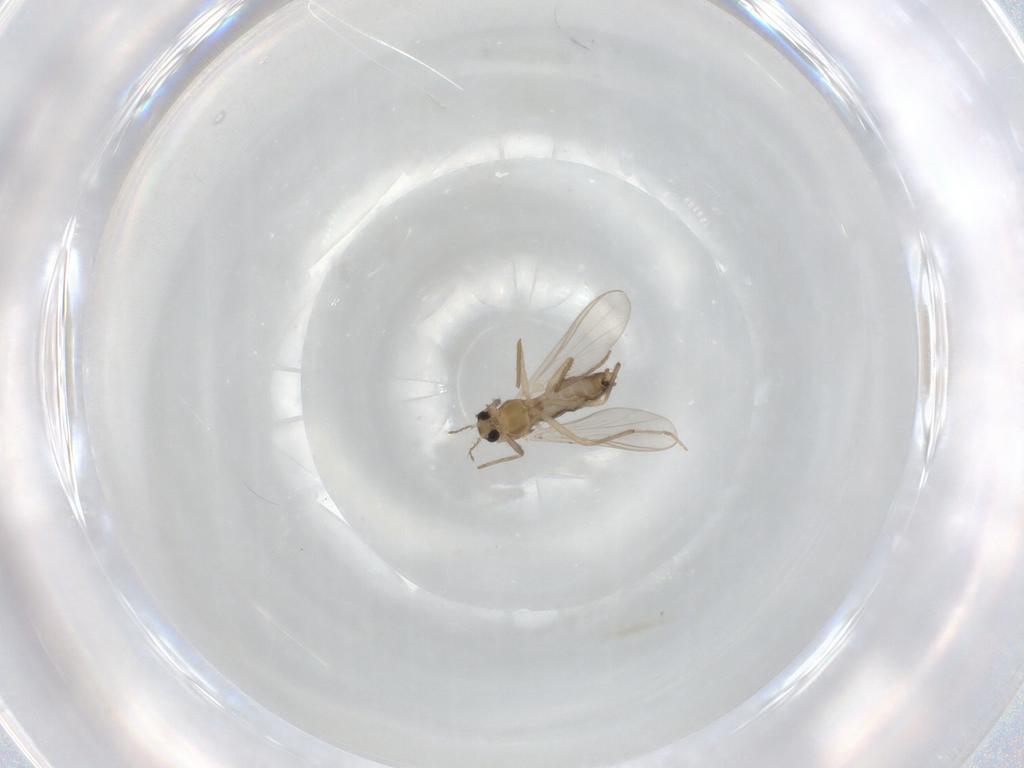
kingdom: Animalia
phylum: Arthropoda
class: Insecta
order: Diptera
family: Chironomidae
